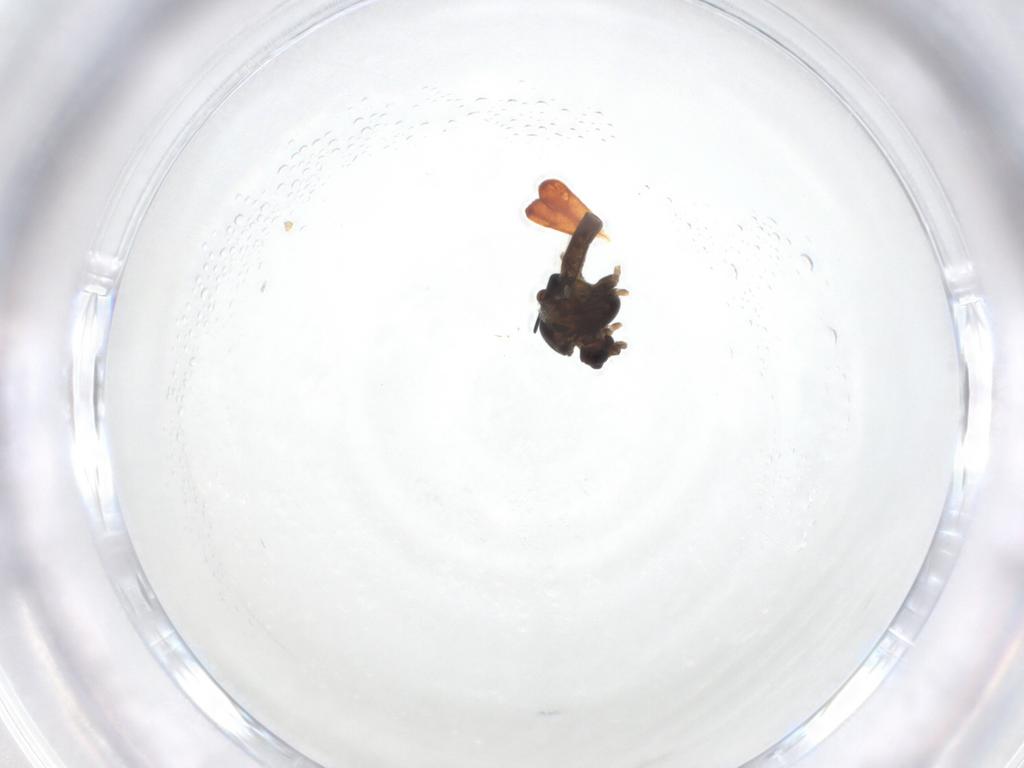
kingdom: Animalia
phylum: Arthropoda
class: Insecta
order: Diptera
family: Chironomidae
